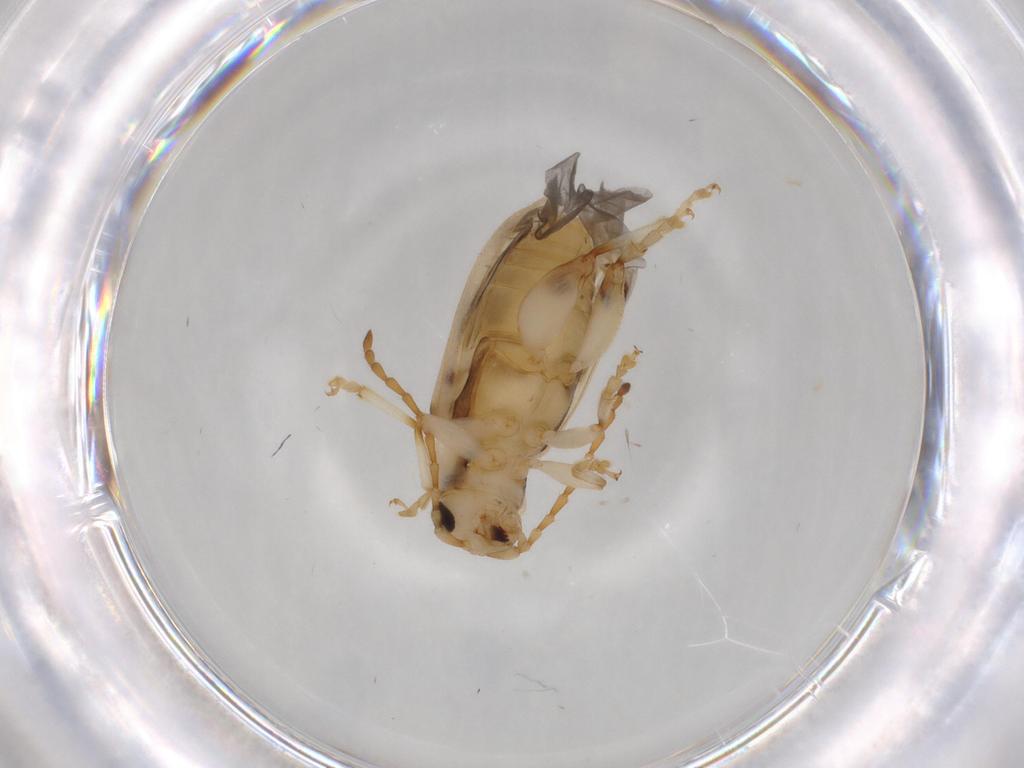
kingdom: Animalia
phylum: Arthropoda
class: Insecta
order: Coleoptera
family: Chrysomelidae
